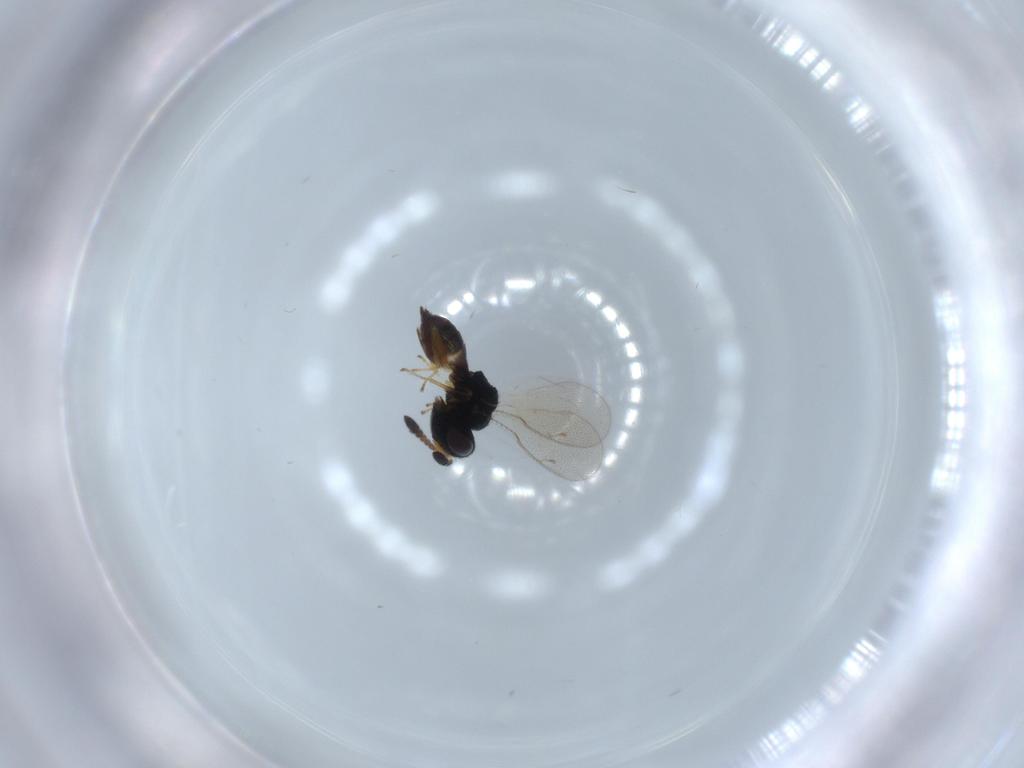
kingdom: Animalia
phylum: Arthropoda
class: Insecta
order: Hymenoptera
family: Pteromalidae
